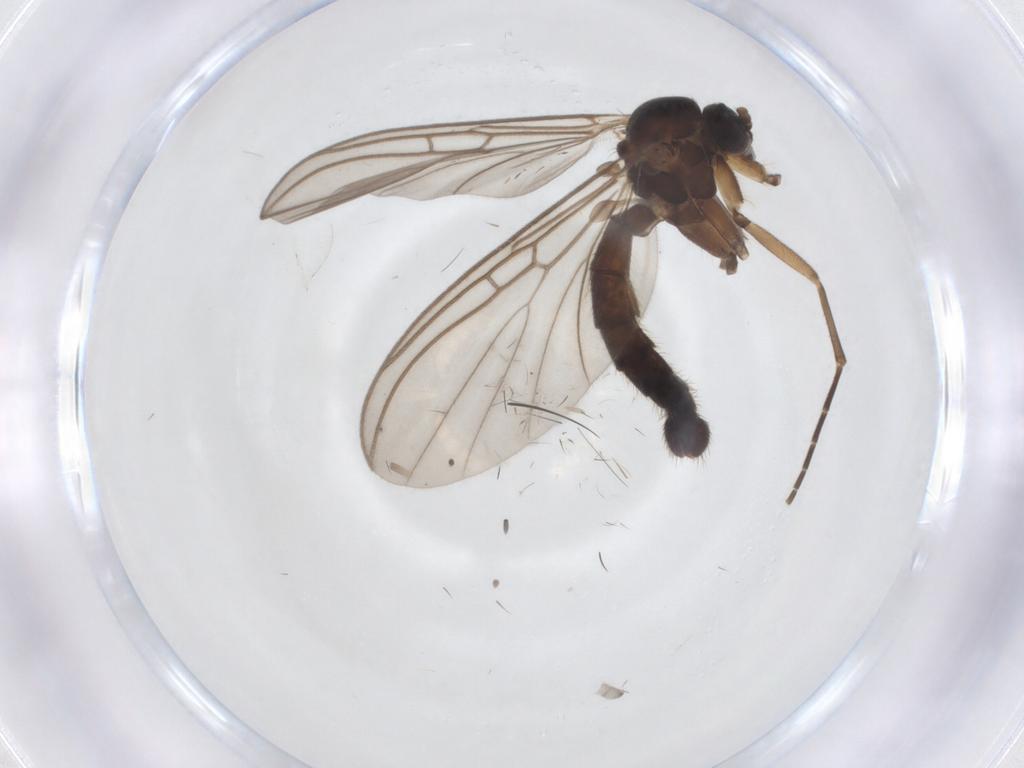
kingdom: Animalia
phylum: Arthropoda
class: Insecta
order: Diptera
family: Mycetophilidae
